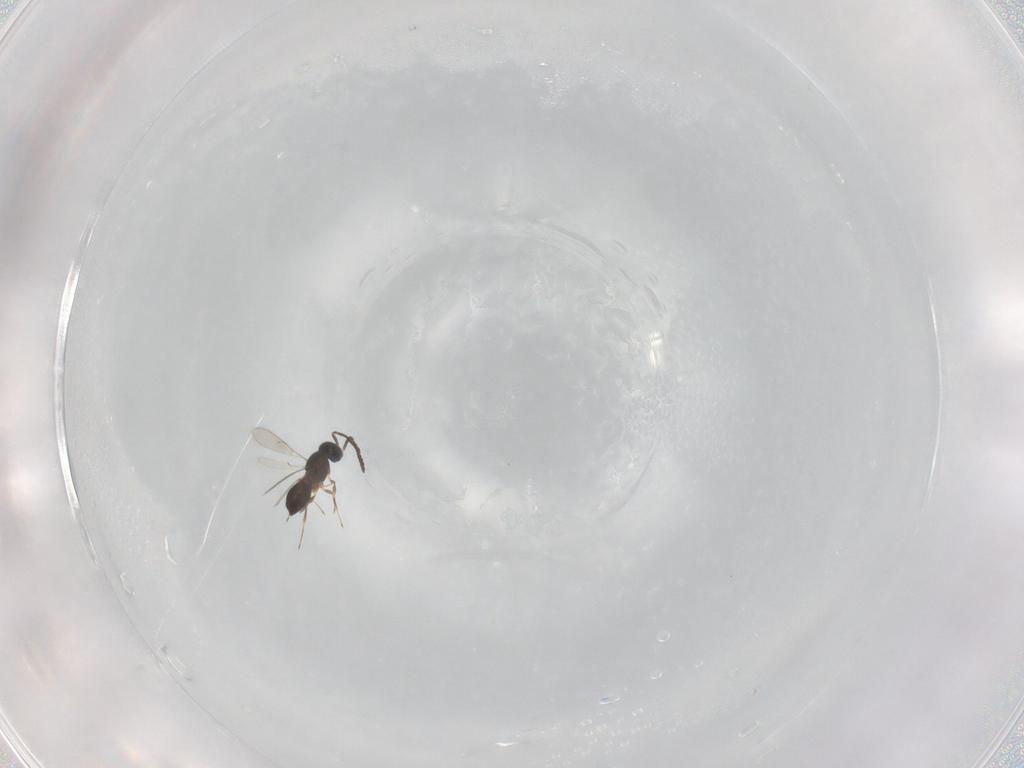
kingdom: Animalia
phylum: Arthropoda
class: Insecta
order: Hymenoptera
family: Scelionidae
